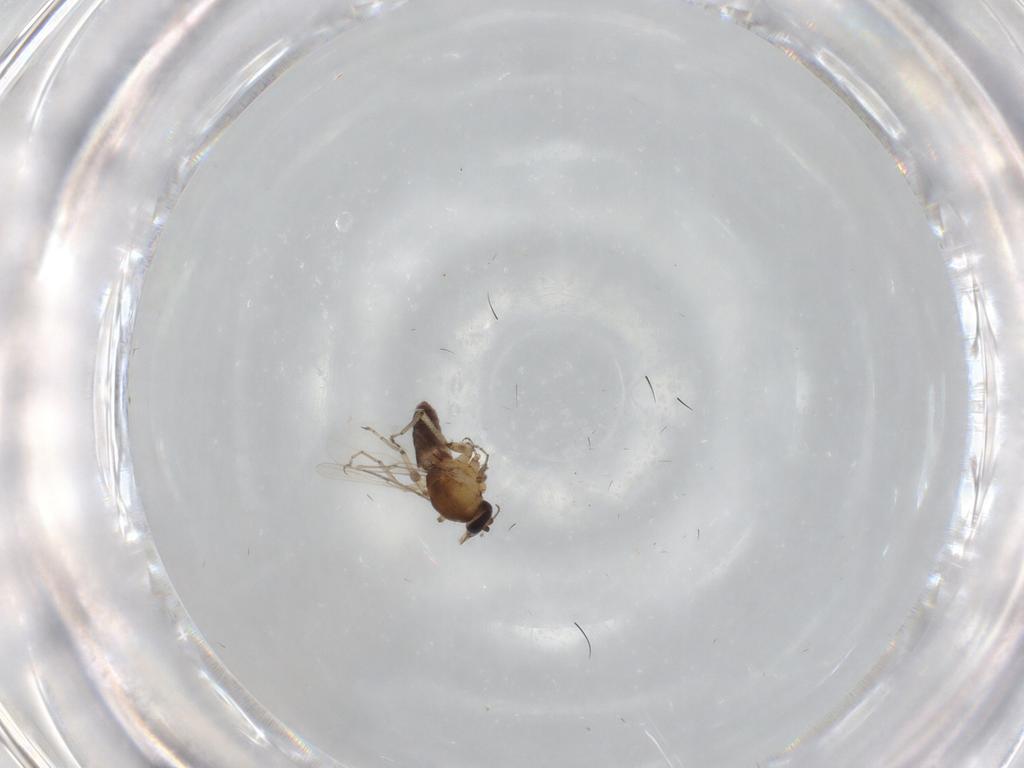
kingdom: Animalia
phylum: Arthropoda
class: Insecta
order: Diptera
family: Ceratopogonidae
